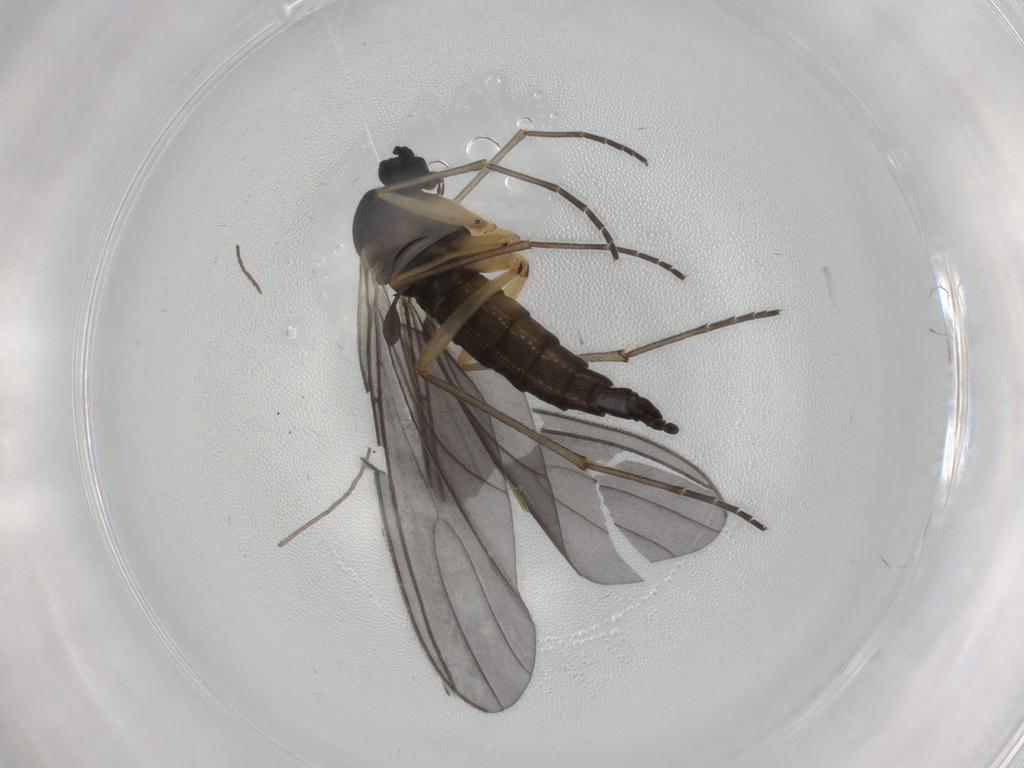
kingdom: Animalia
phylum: Arthropoda
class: Insecta
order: Diptera
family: Sciaridae
